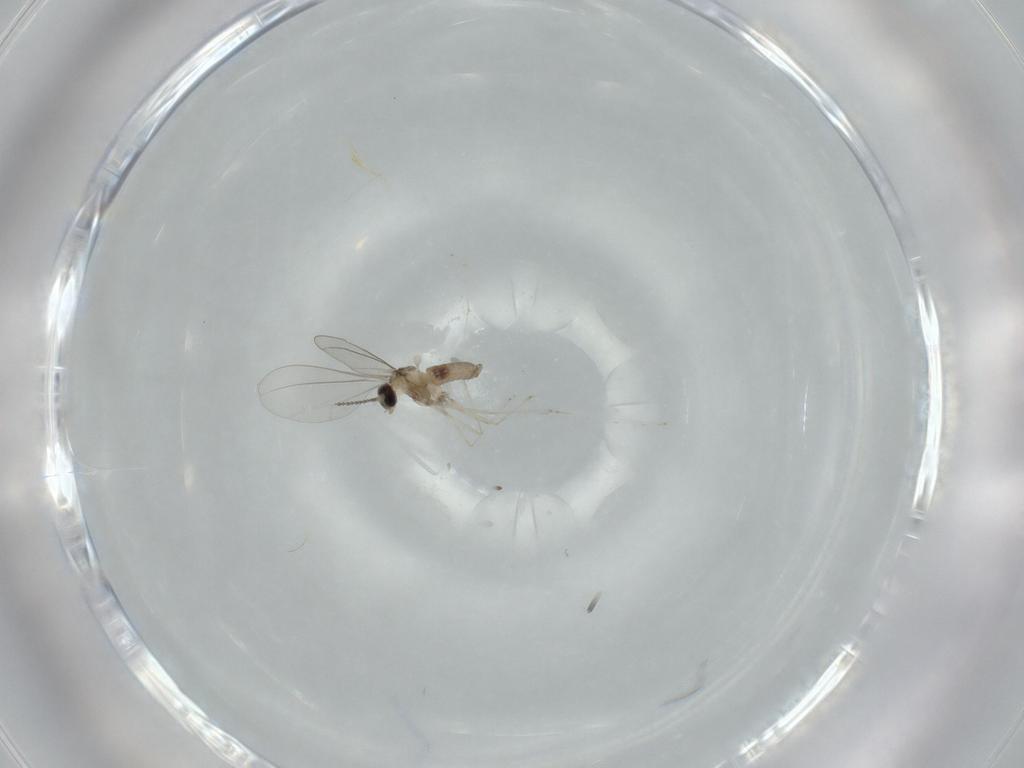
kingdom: Animalia
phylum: Arthropoda
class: Insecta
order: Diptera
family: Cecidomyiidae
